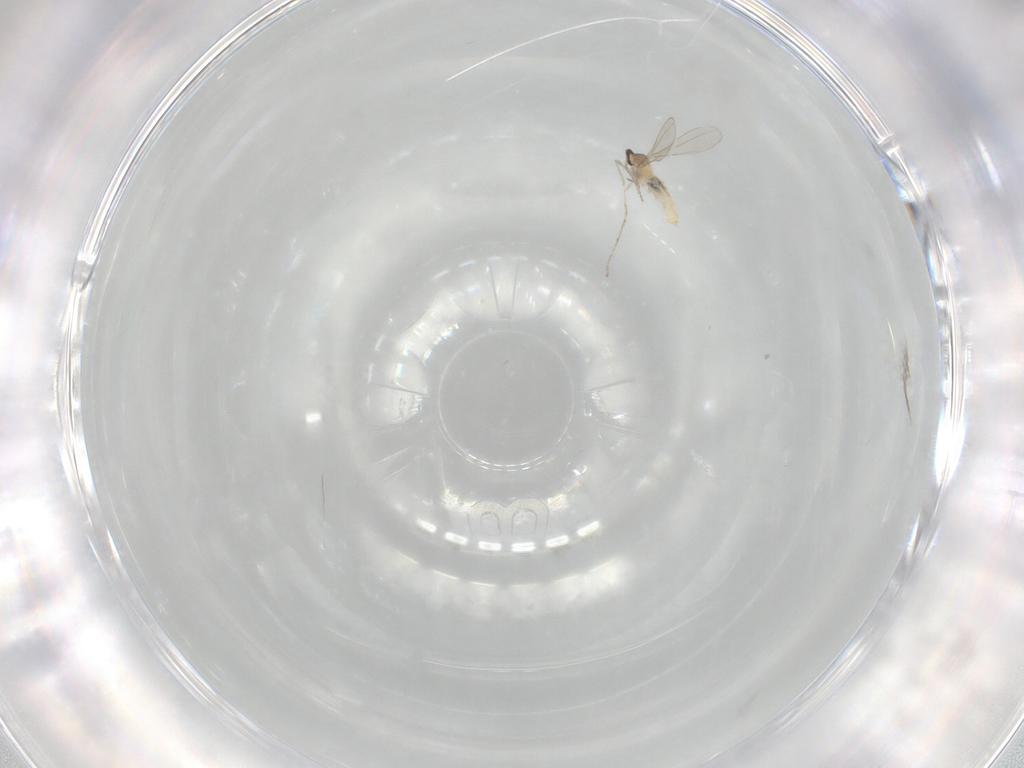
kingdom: Animalia
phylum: Arthropoda
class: Insecta
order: Diptera
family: Cecidomyiidae
